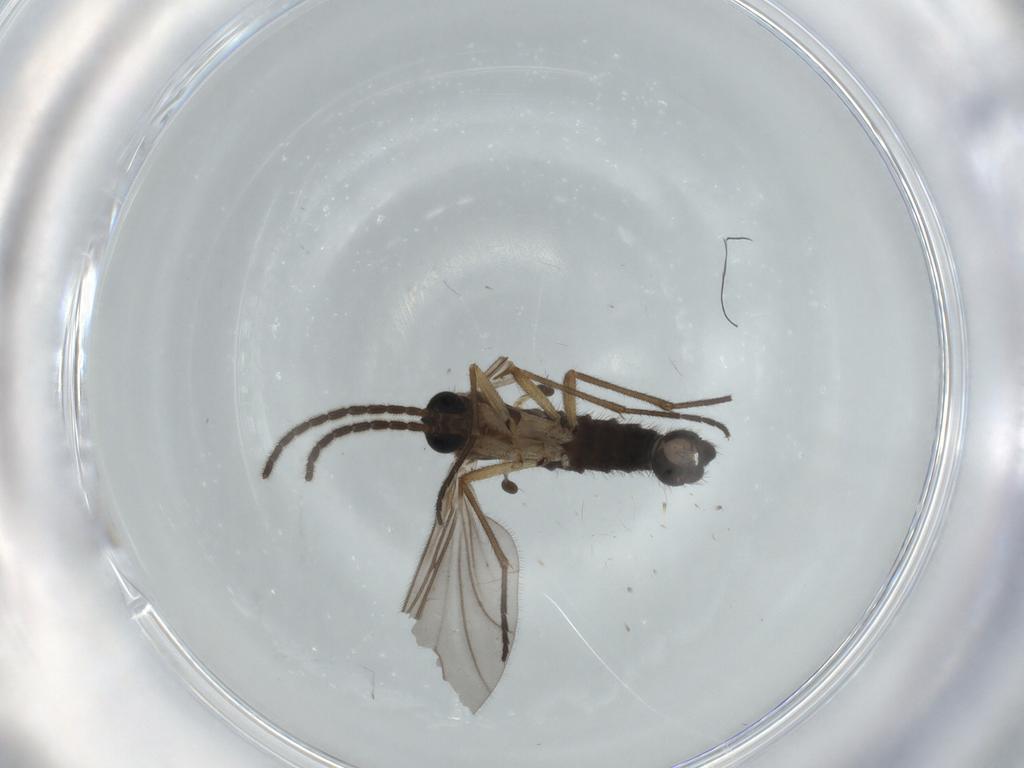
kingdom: Animalia
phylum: Arthropoda
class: Insecta
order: Diptera
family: Sciaridae
